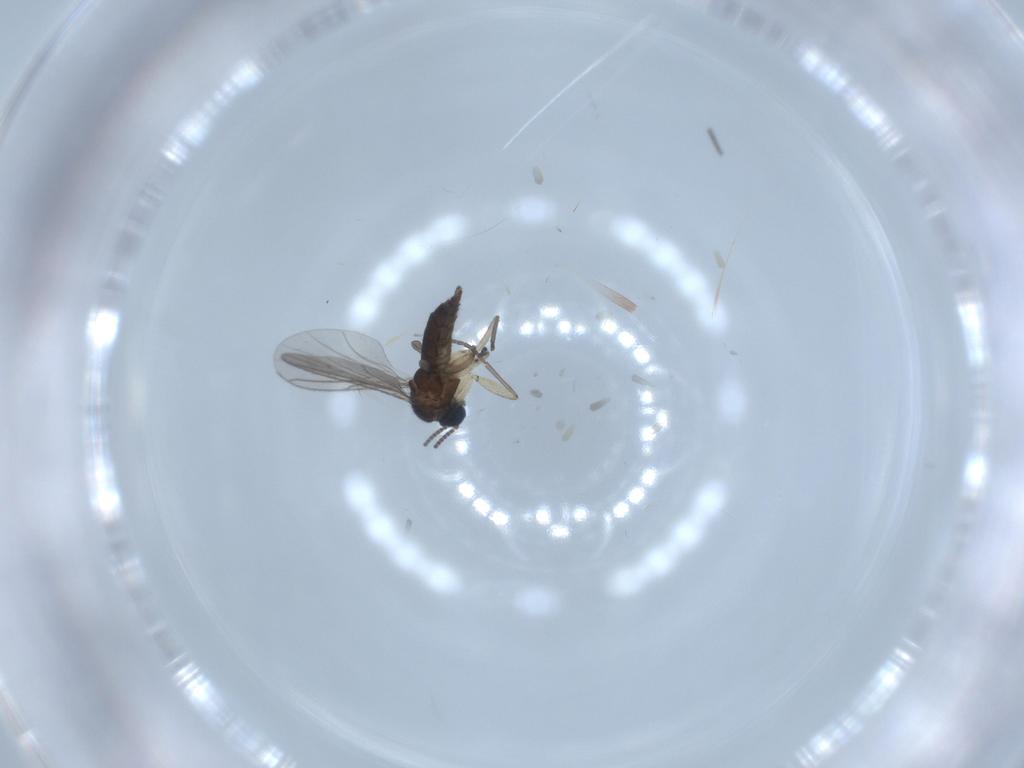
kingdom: Animalia
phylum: Arthropoda
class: Insecta
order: Diptera
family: Sciaridae
